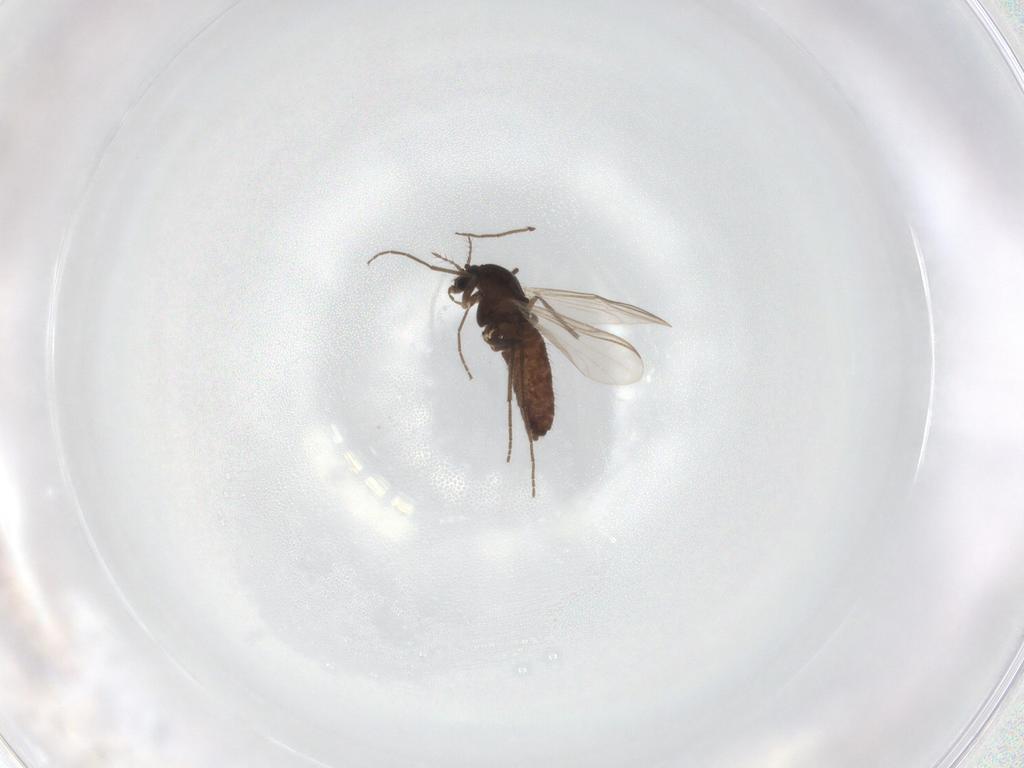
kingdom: Animalia
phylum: Arthropoda
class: Insecta
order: Diptera
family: Chironomidae
